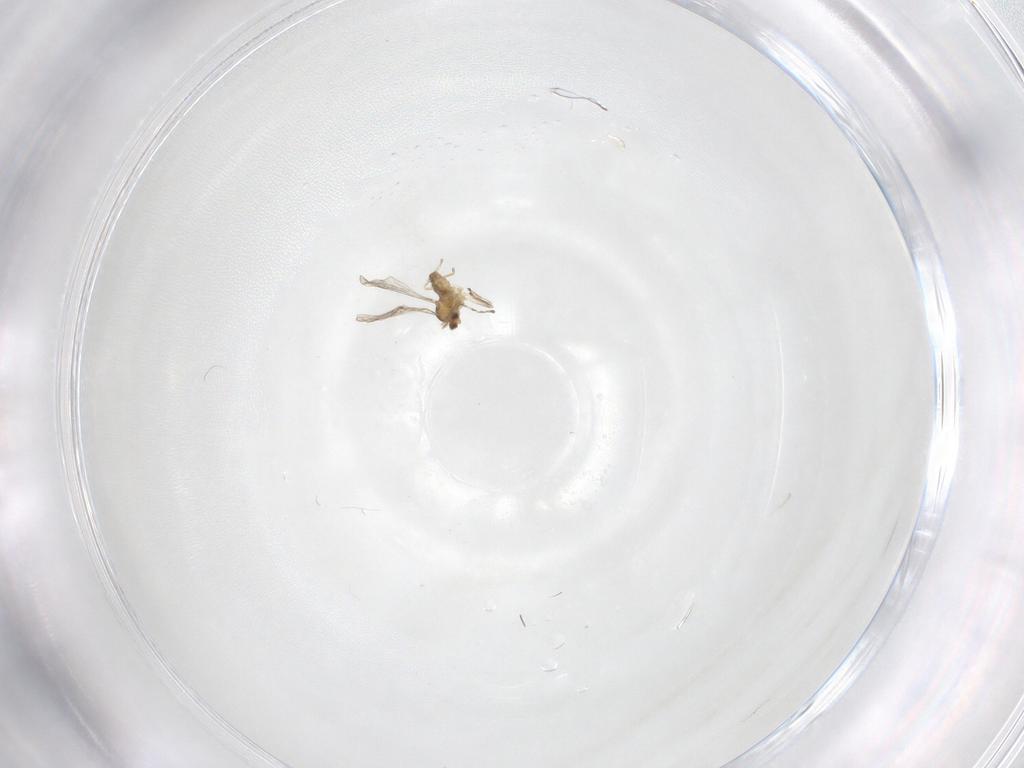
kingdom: Animalia
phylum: Arthropoda
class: Insecta
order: Diptera
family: Cecidomyiidae
